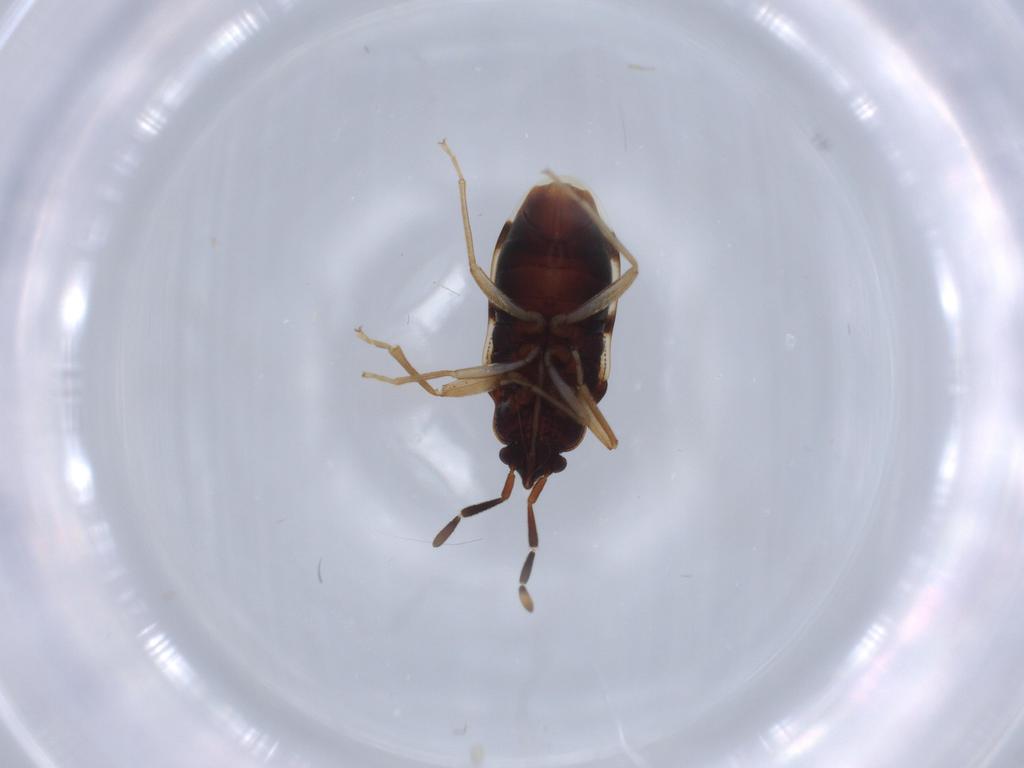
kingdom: Animalia
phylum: Arthropoda
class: Insecta
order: Hemiptera
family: Rhyparochromidae
